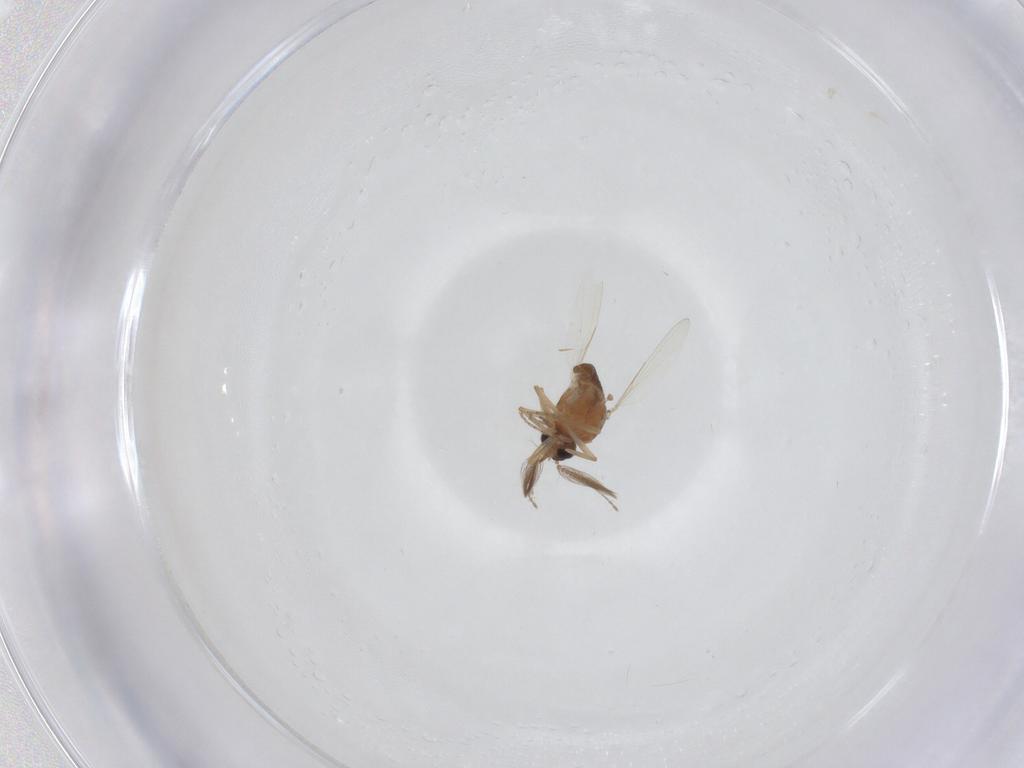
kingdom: Animalia
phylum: Arthropoda
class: Insecta
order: Diptera
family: Ceratopogonidae
